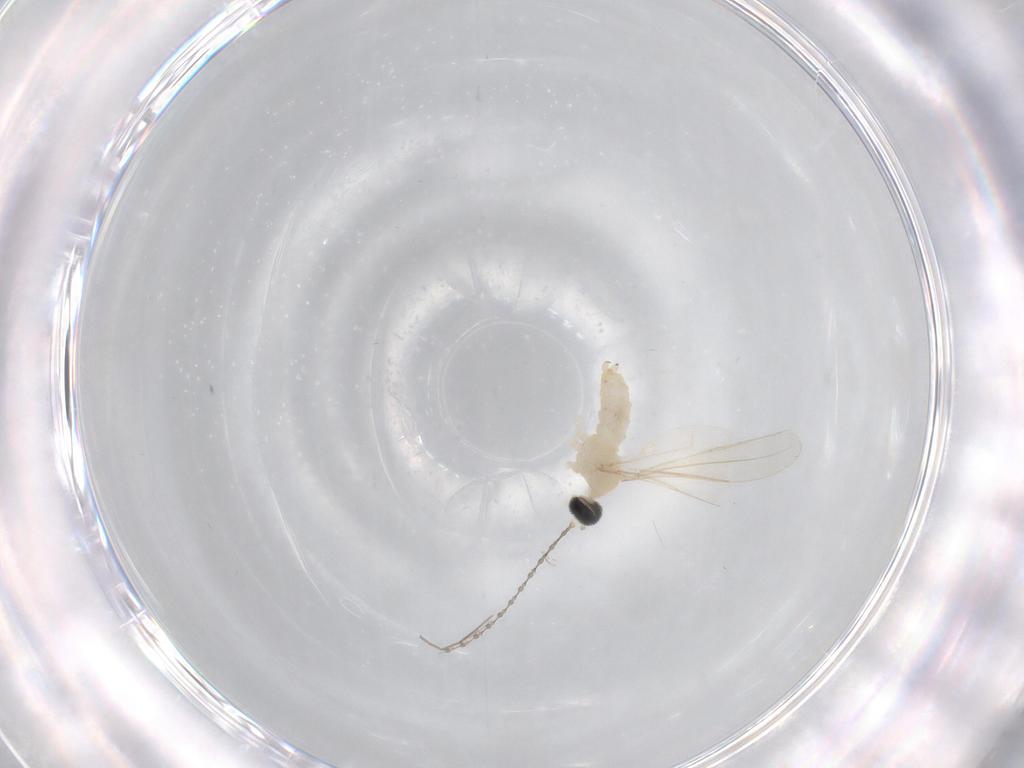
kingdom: Animalia
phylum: Arthropoda
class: Insecta
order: Diptera
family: Cecidomyiidae
